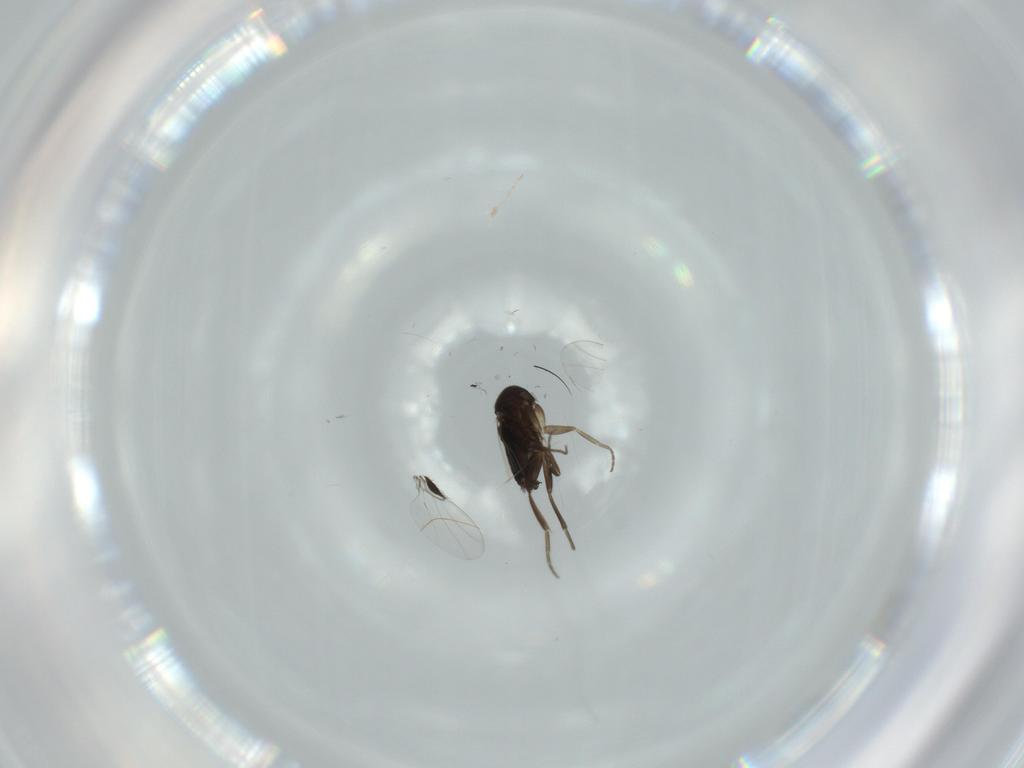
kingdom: Animalia
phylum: Arthropoda
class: Insecta
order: Diptera
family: Phoridae
